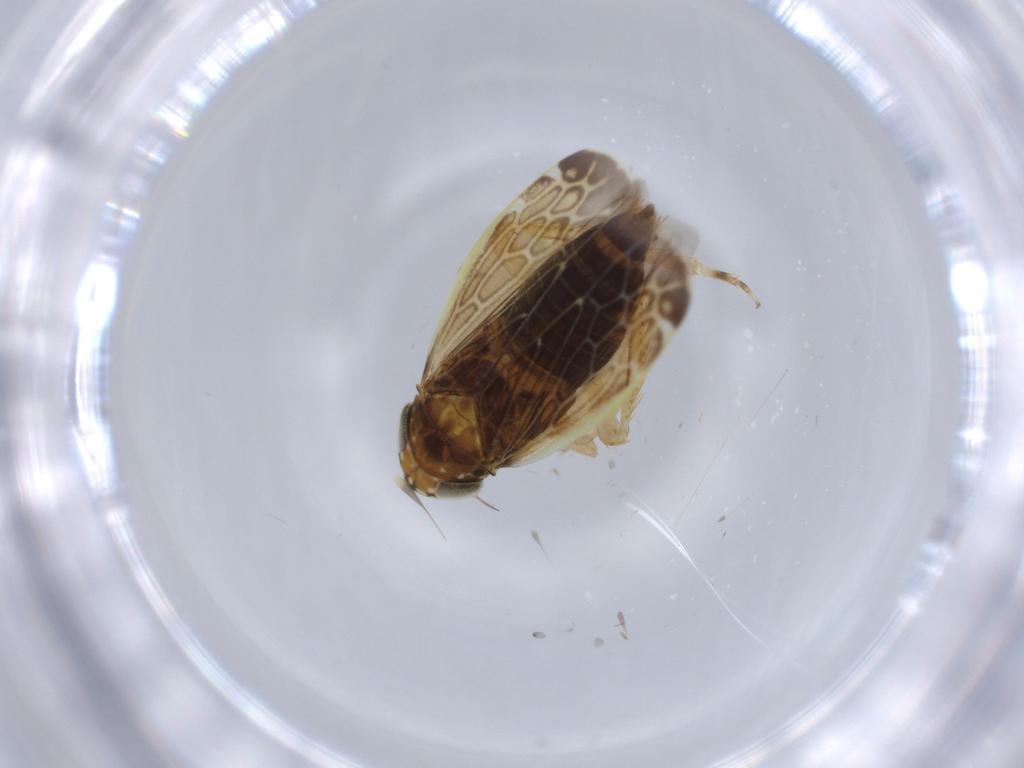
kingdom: Animalia
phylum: Arthropoda
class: Insecta
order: Hemiptera
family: Cicadellidae
